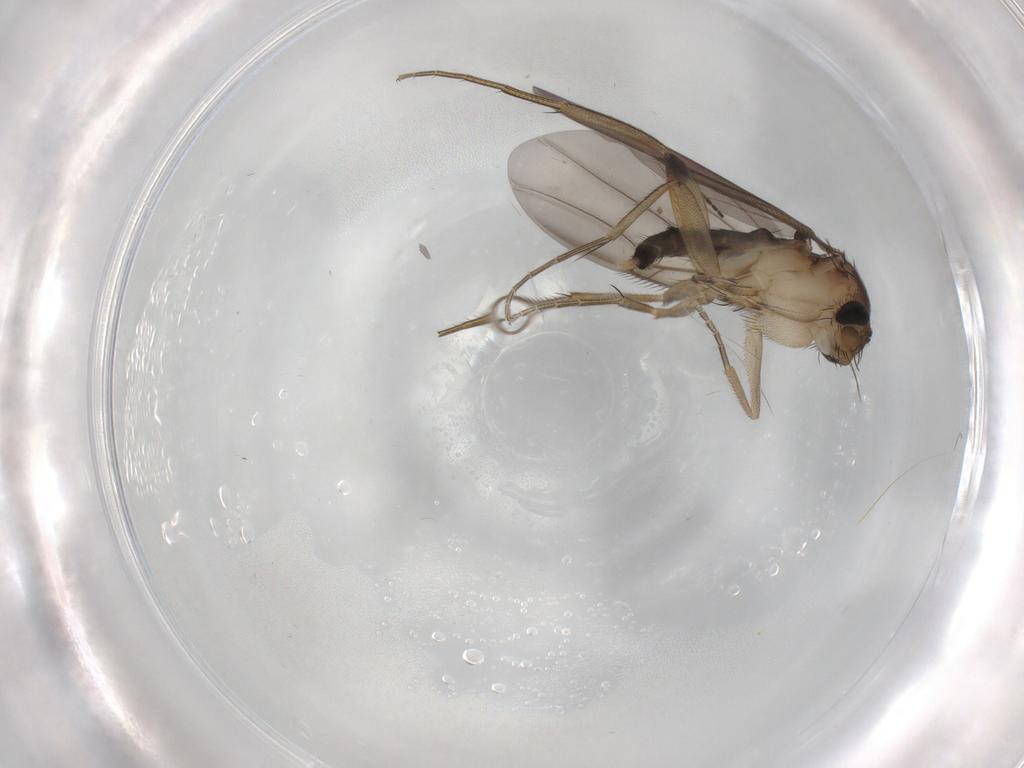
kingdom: Animalia
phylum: Arthropoda
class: Insecta
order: Diptera
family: Phoridae
